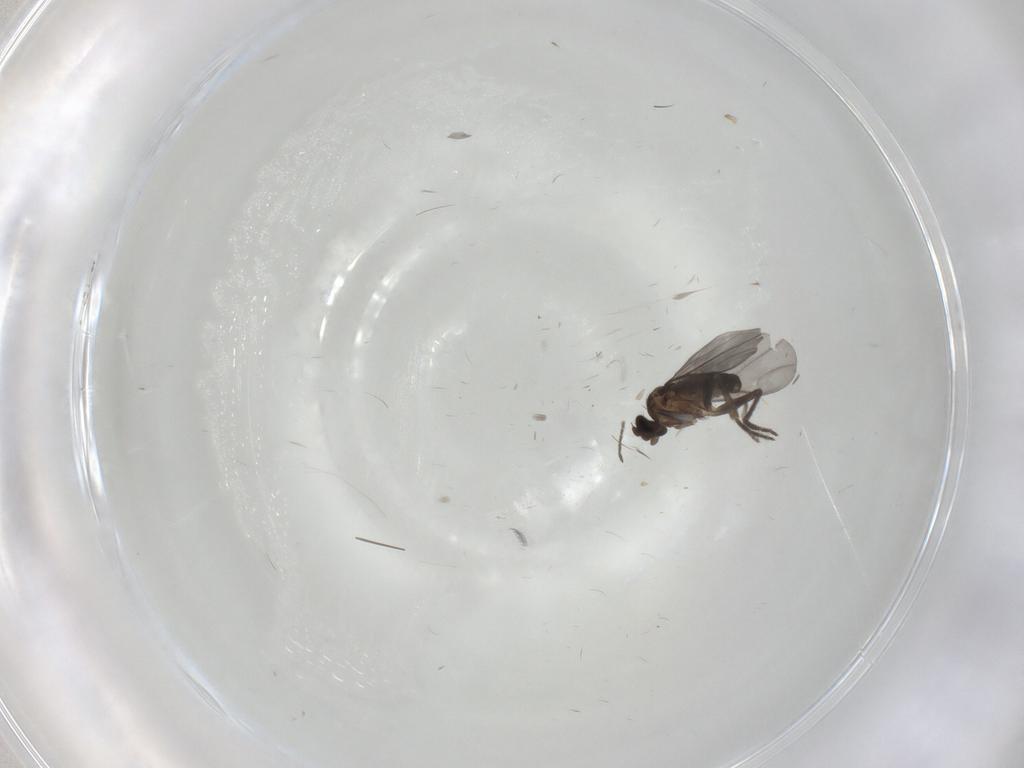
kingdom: Animalia
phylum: Arthropoda
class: Insecta
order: Diptera
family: Phoridae
